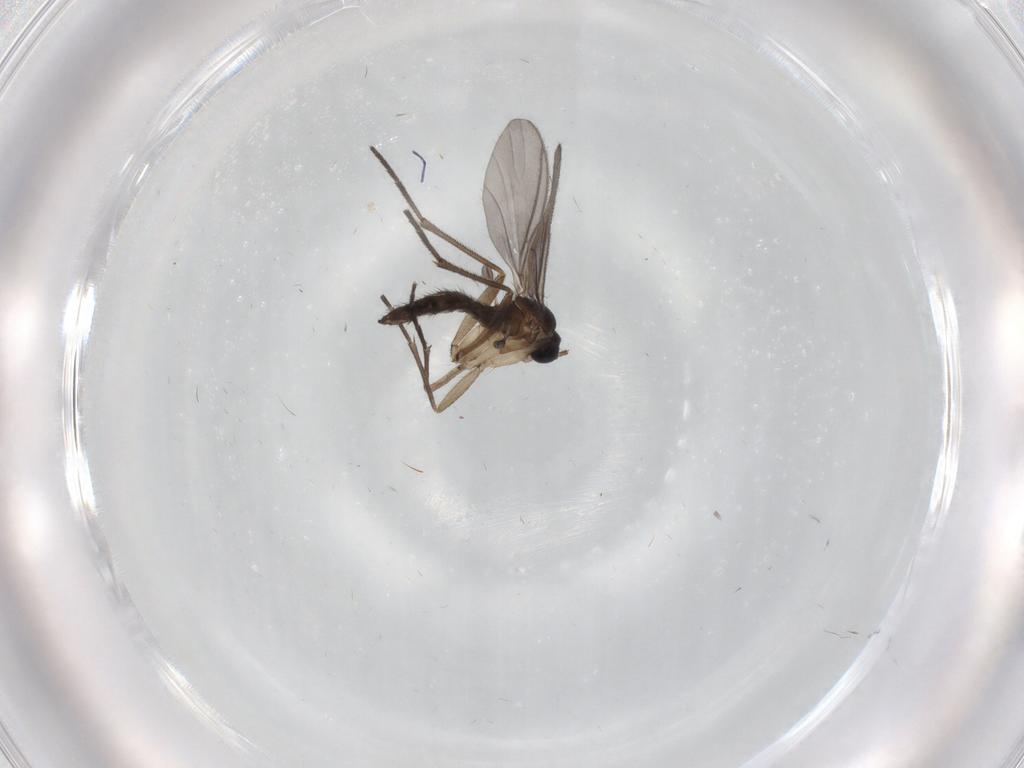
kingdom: Animalia
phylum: Arthropoda
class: Insecta
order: Diptera
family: Sciaridae
